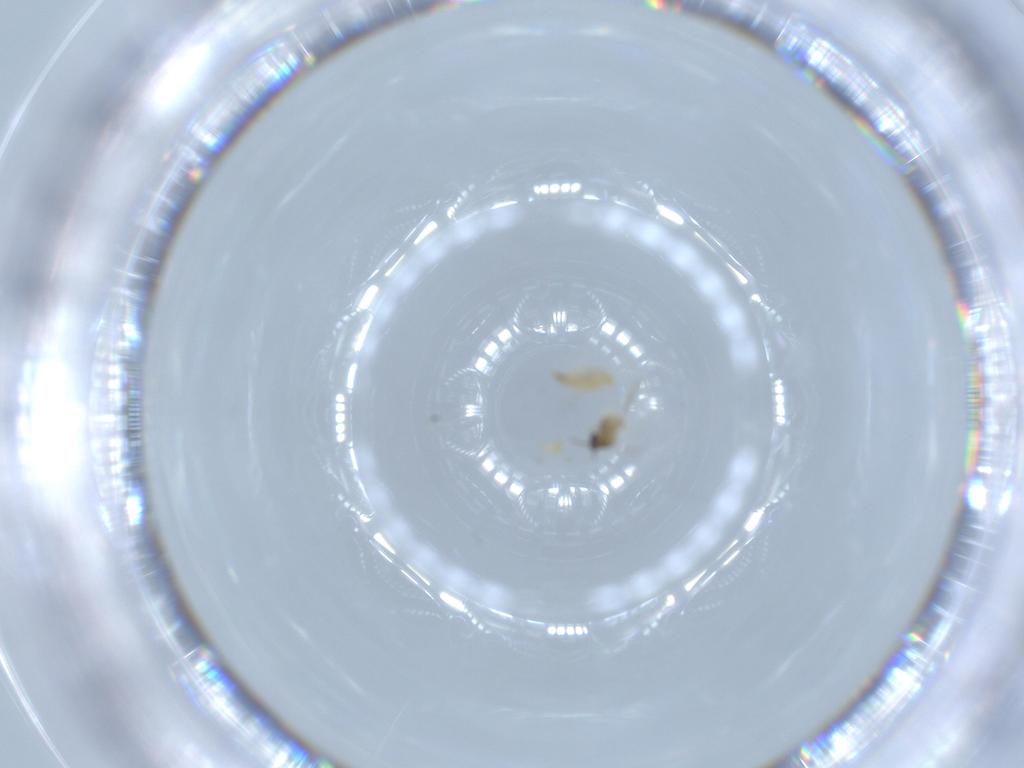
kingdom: Animalia
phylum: Arthropoda
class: Insecta
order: Diptera
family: Cecidomyiidae
